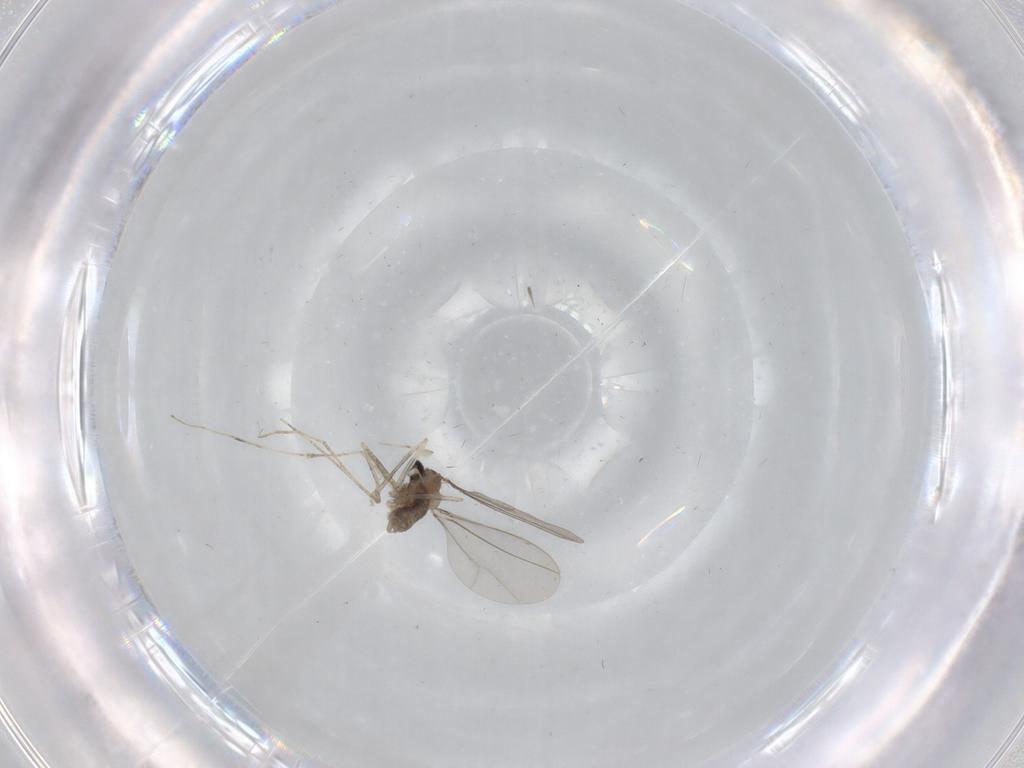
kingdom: Animalia
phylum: Arthropoda
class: Insecta
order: Diptera
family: Cecidomyiidae
